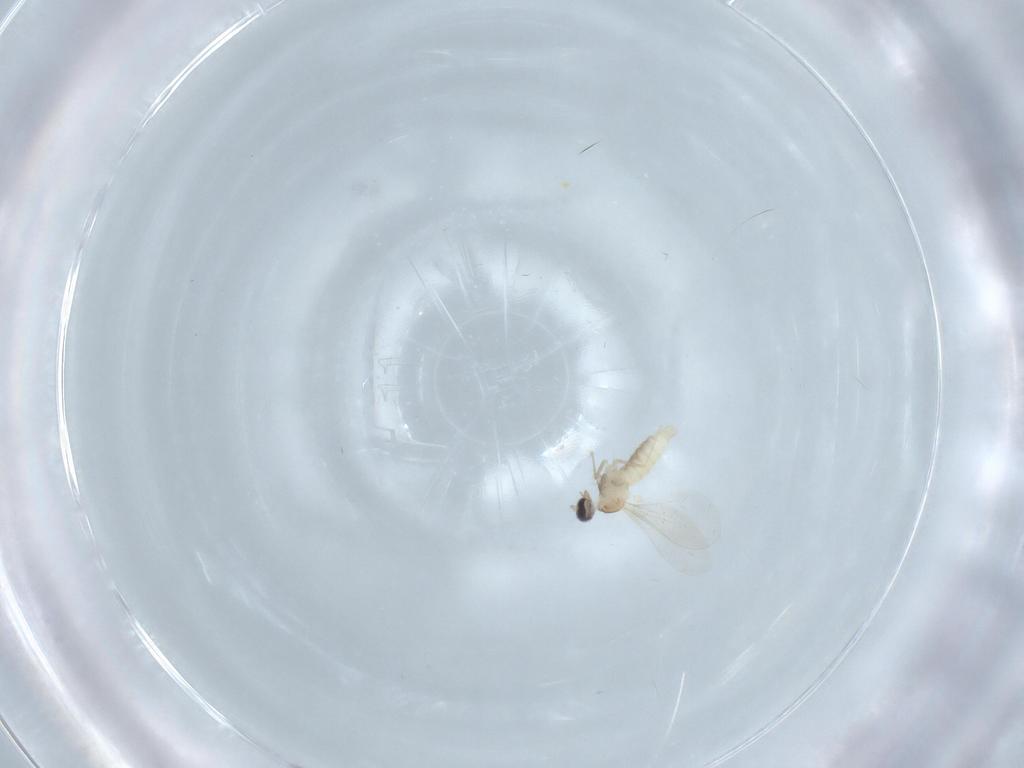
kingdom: Animalia
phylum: Arthropoda
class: Insecta
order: Diptera
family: Cecidomyiidae
